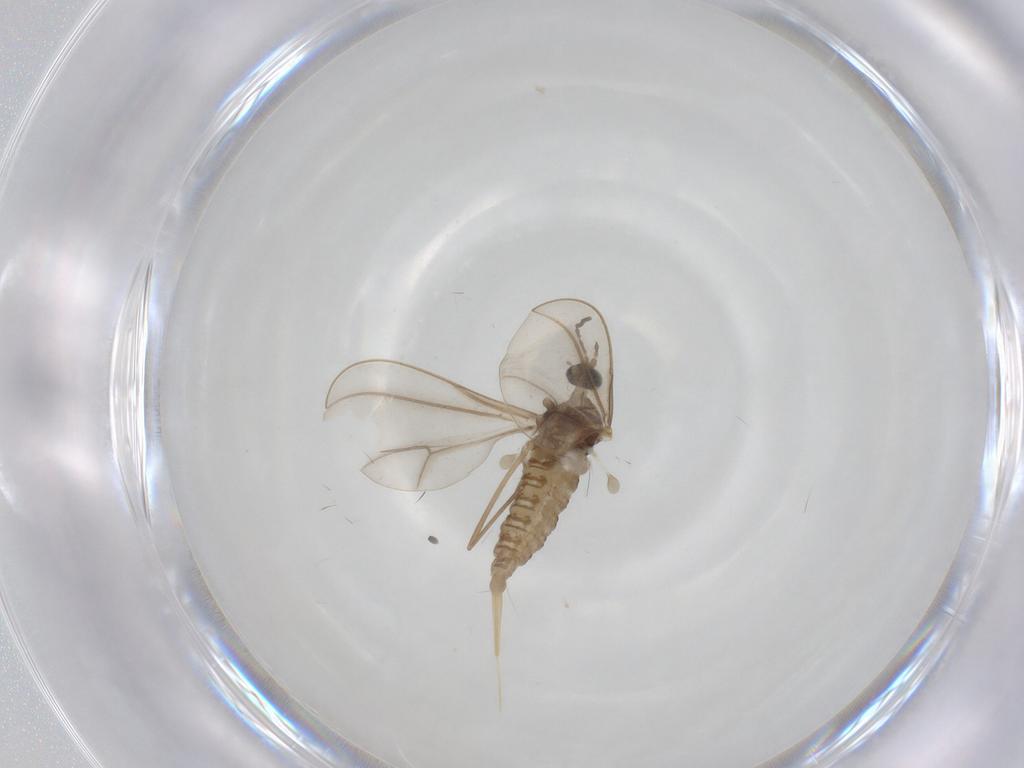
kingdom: Animalia
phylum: Arthropoda
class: Insecta
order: Diptera
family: Cecidomyiidae
